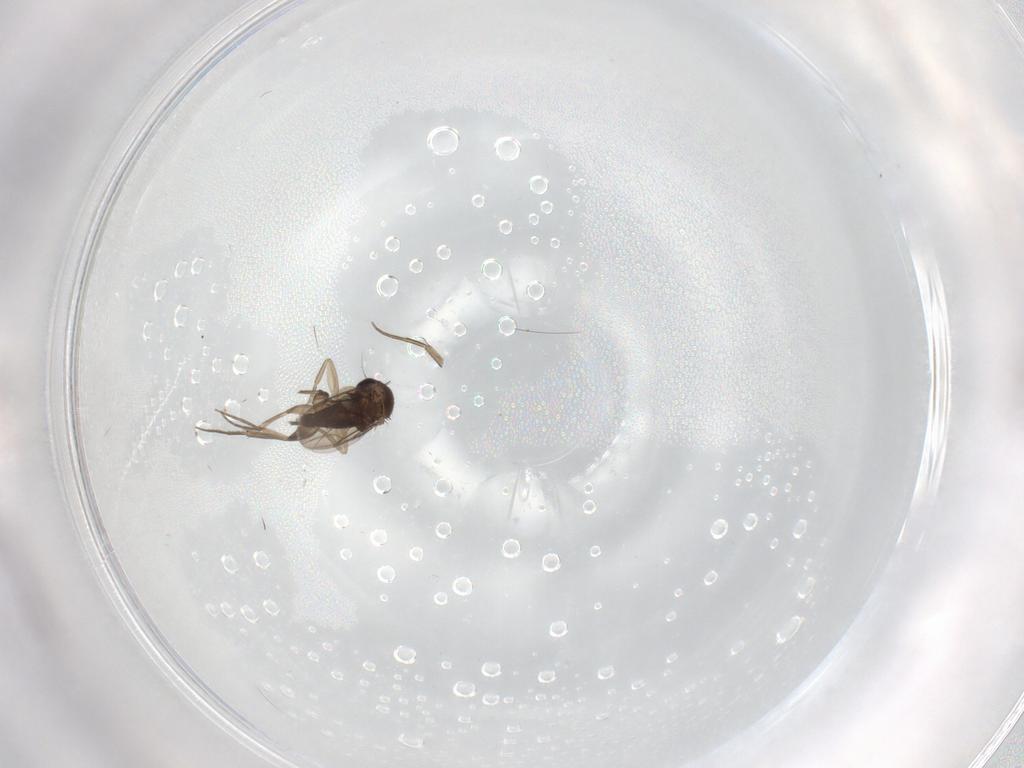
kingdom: Animalia
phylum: Arthropoda
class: Insecta
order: Diptera
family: Phoridae
